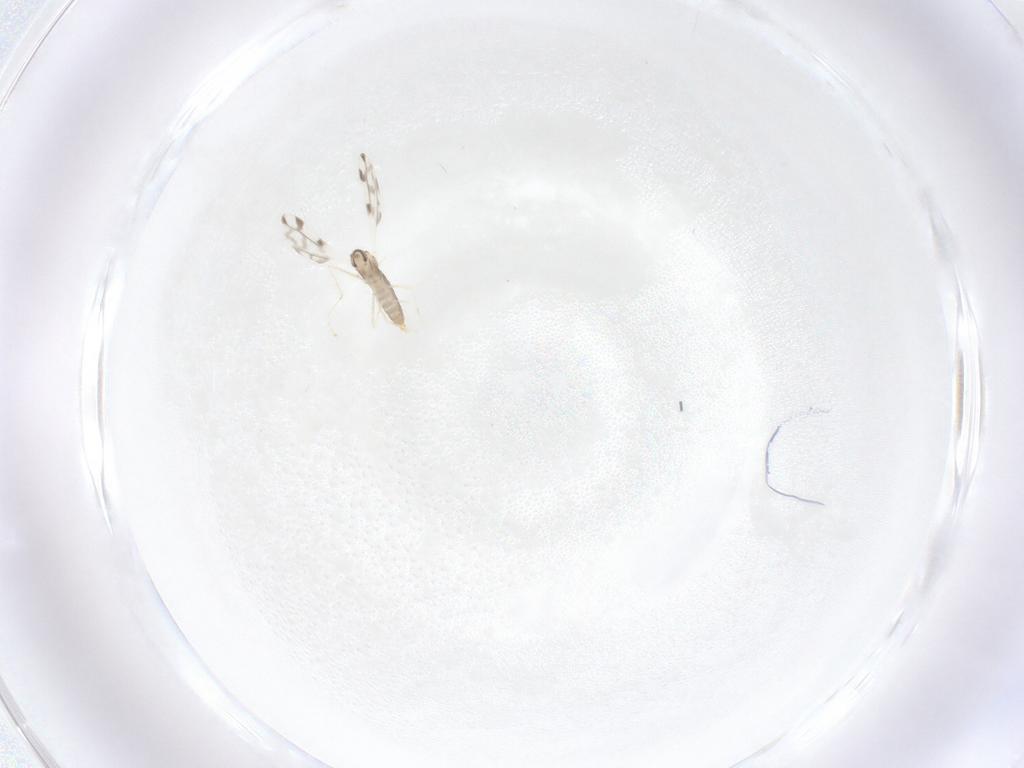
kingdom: Animalia
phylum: Arthropoda
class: Insecta
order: Diptera
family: Cecidomyiidae
